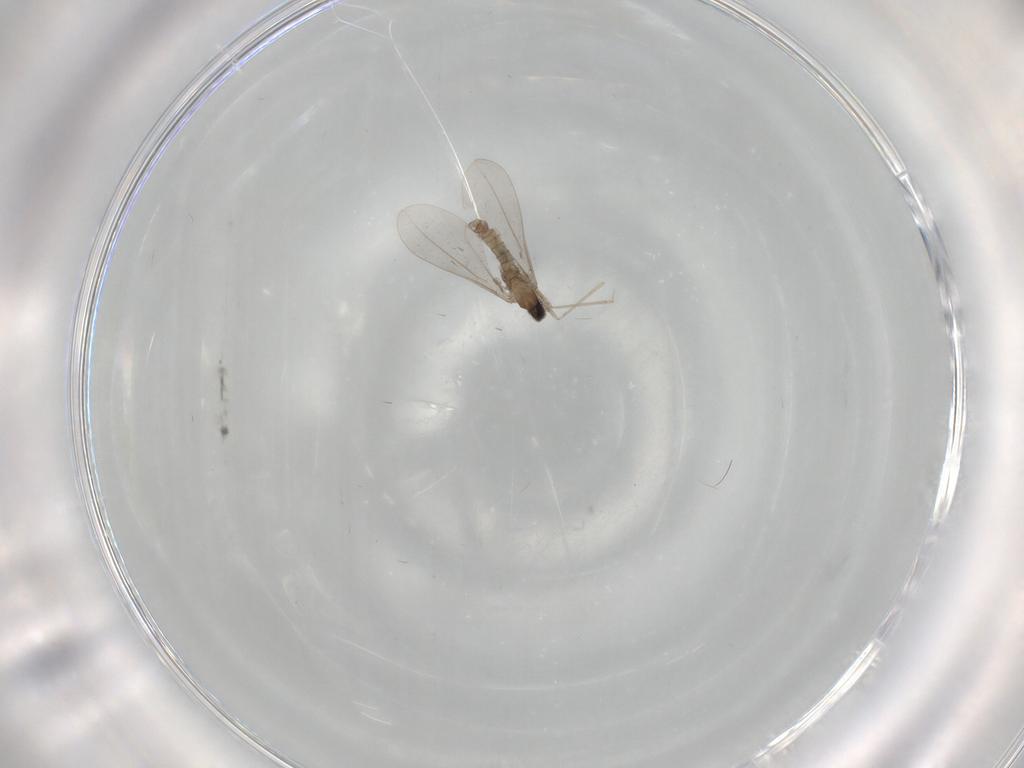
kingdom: Animalia
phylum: Arthropoda
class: Insecta
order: Diptera
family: Cecidomyiidae
